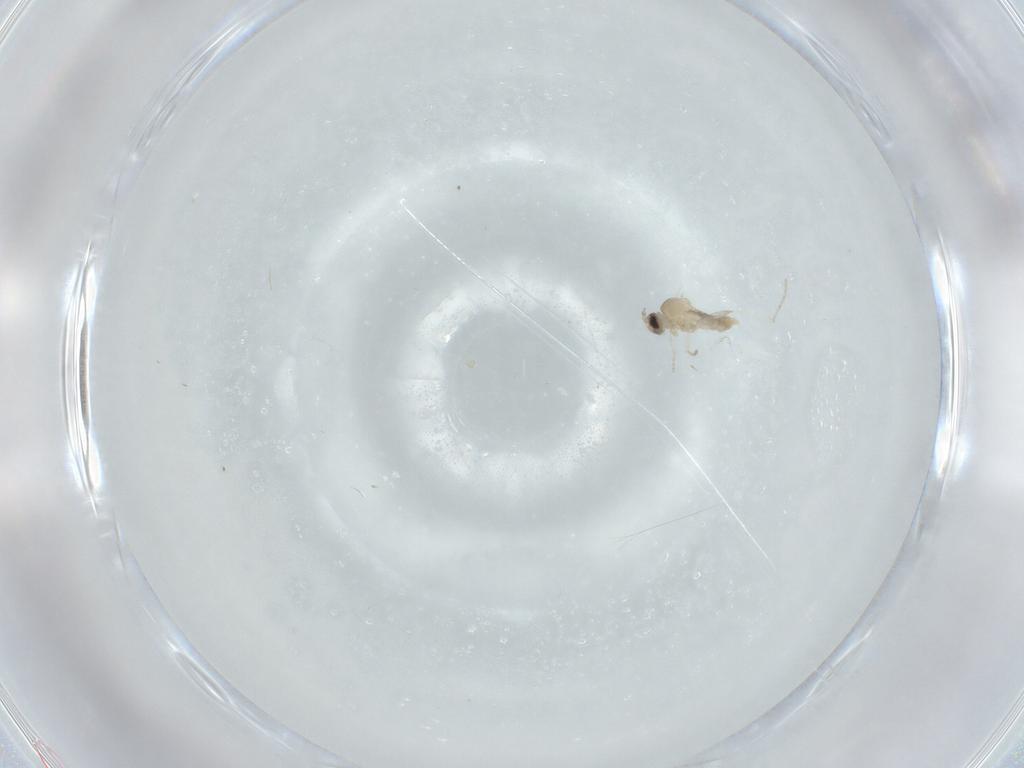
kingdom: Animalia
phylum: Arthropoda
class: Insecta
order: Diptera
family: Cecidomyiidae
